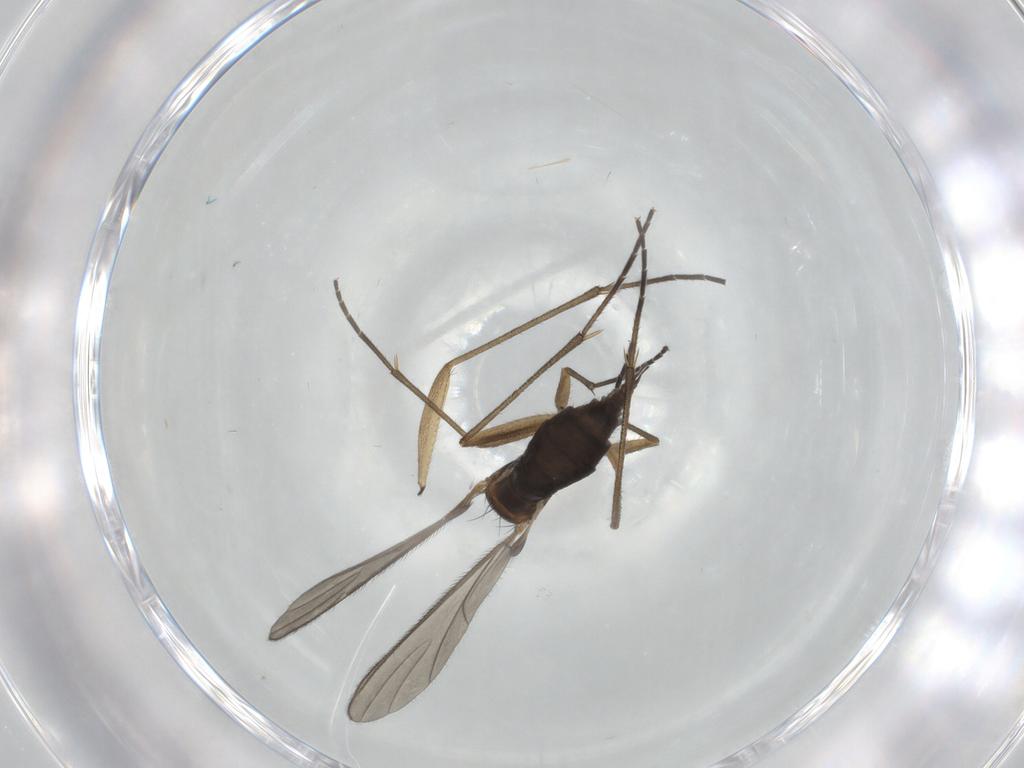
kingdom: Animalia
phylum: Arthropoda
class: Insecta
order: Diptera
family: Sciaridae
